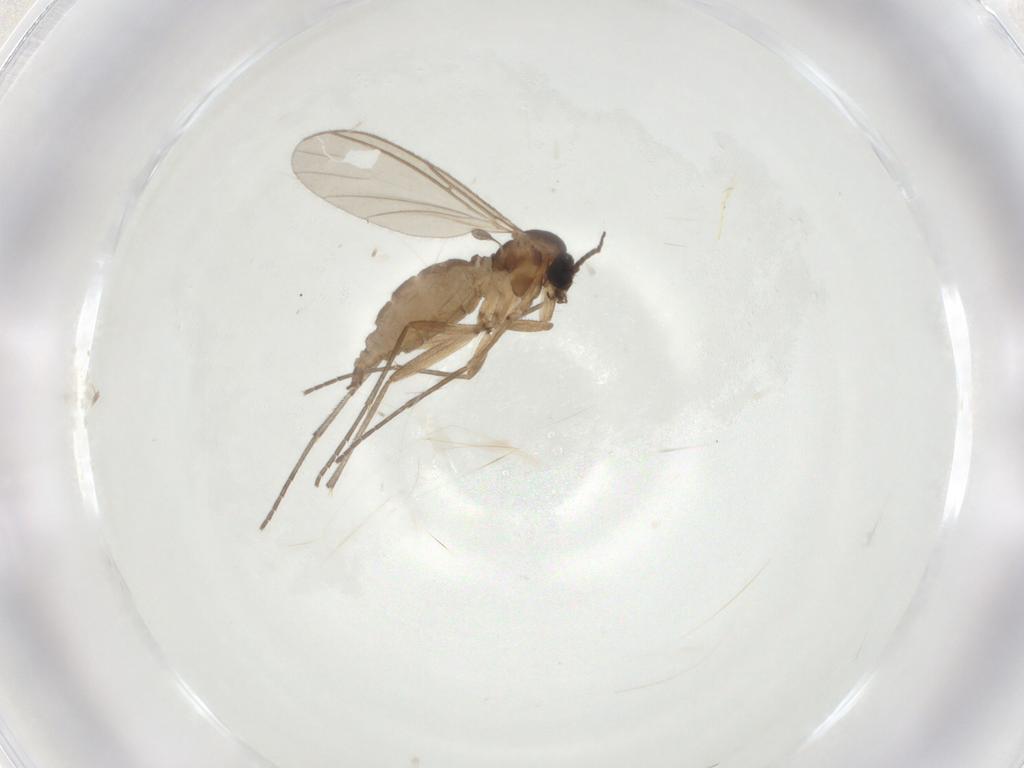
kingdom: Animalia
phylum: Arthropoda
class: Insecta
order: Diptera
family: Sciaridae
